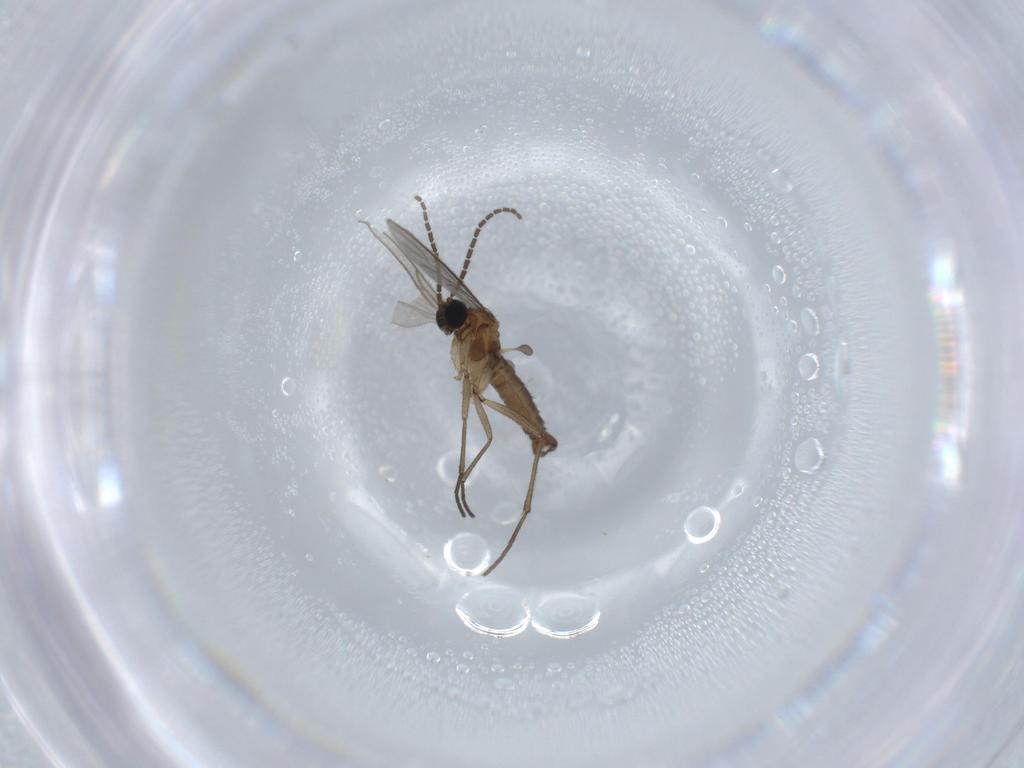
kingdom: Animalia
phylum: Arthropoda
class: Insecta
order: Diptera
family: Sciaridae
